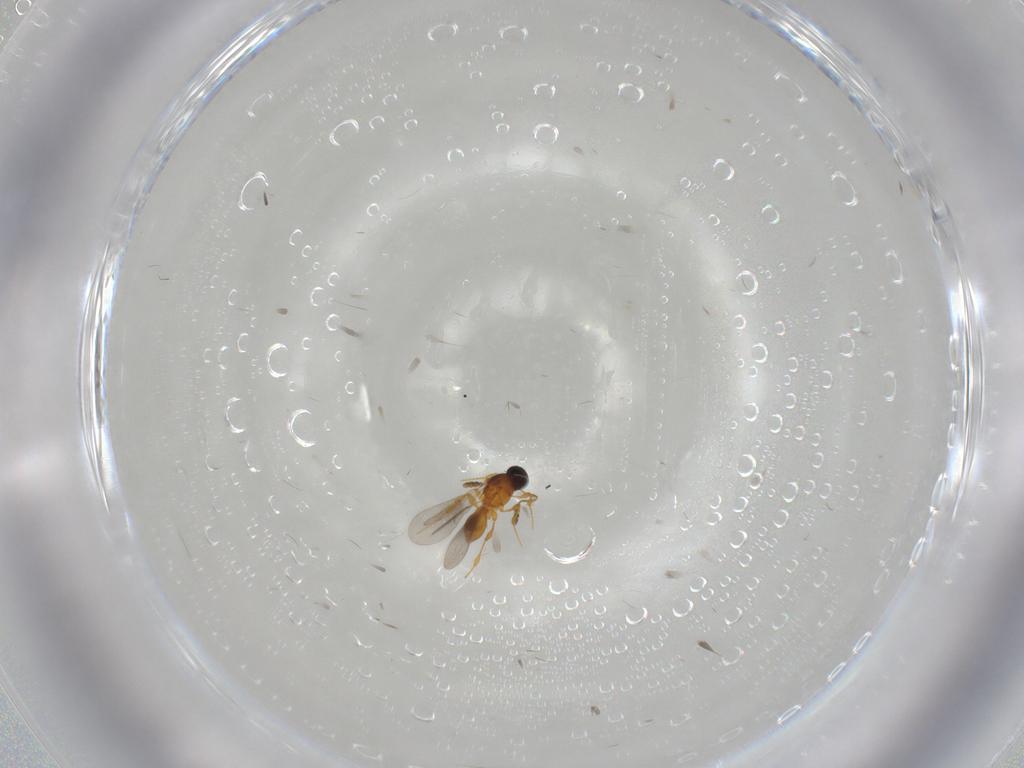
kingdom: Animalia
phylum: Arthropoda
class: Insecta
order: Hymenoptera
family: Platygastridae
